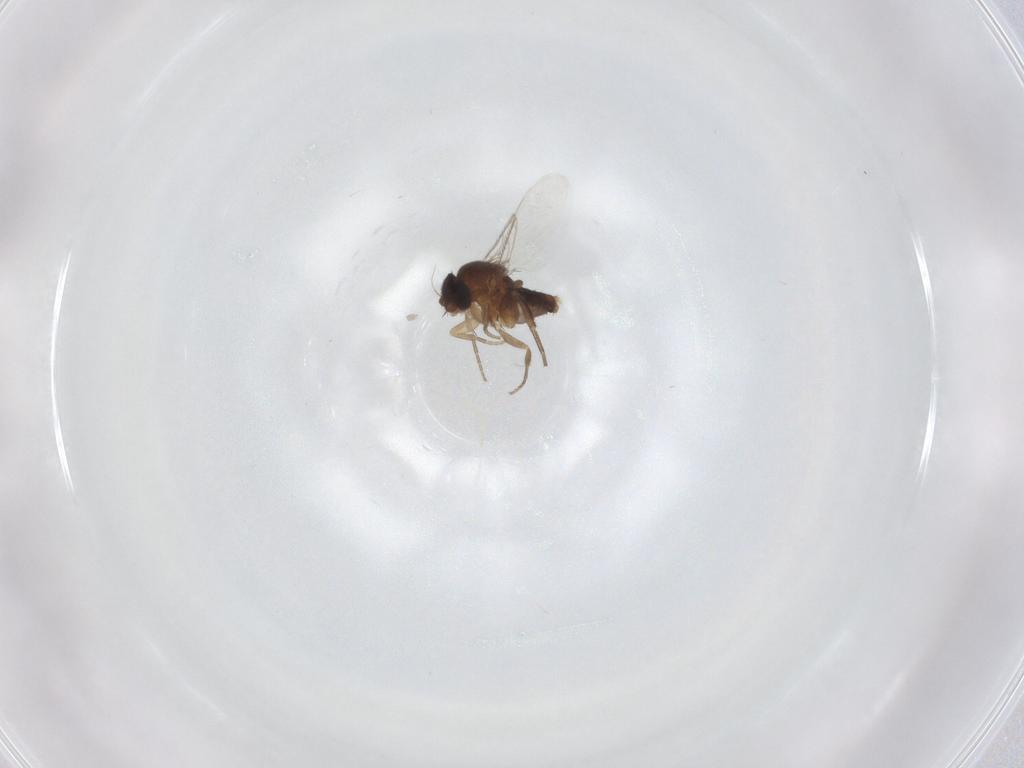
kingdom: Animalia
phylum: Arthropoda
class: Insecta
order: Diptera
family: Phoridae
